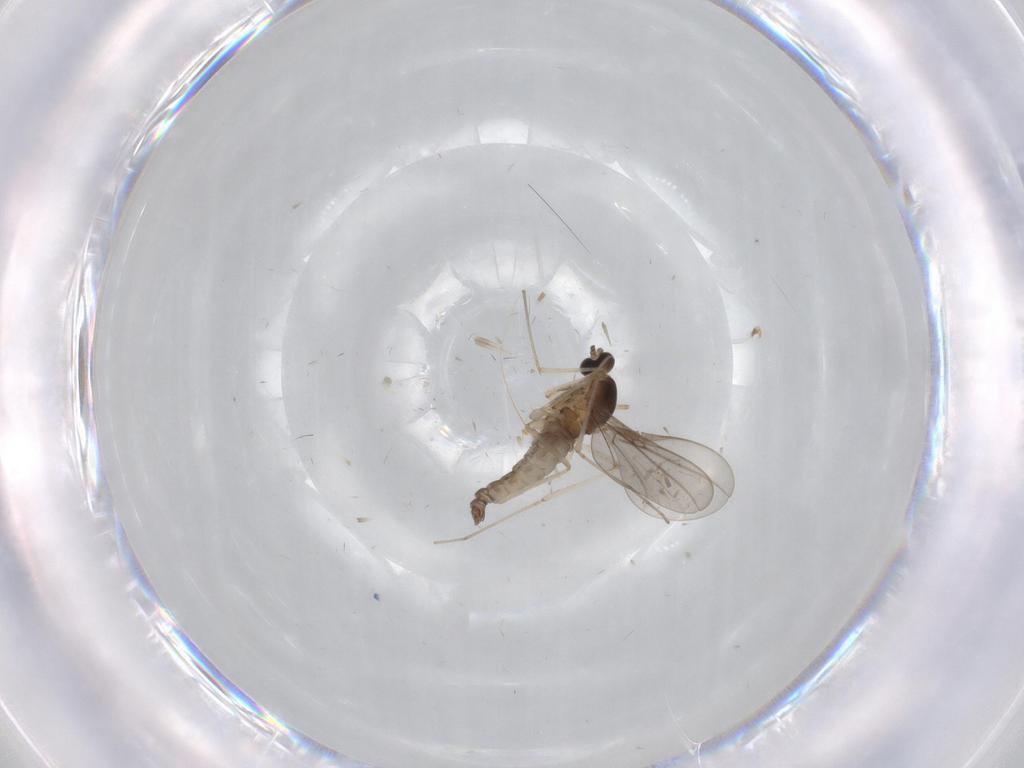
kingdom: Animalia
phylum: Arthropoda
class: Insecta
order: Diptera
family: Cecidomyiidae
